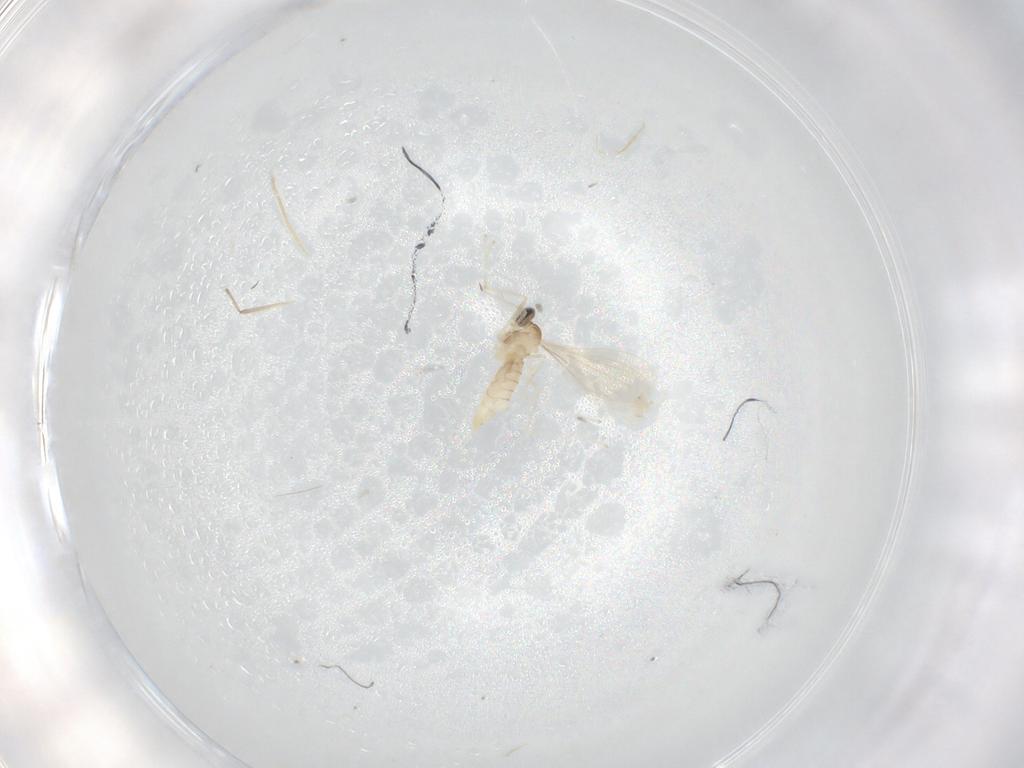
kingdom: Animalia
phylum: Arthropoda
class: Insecta
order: Diptera
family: Cecidomyiidae
